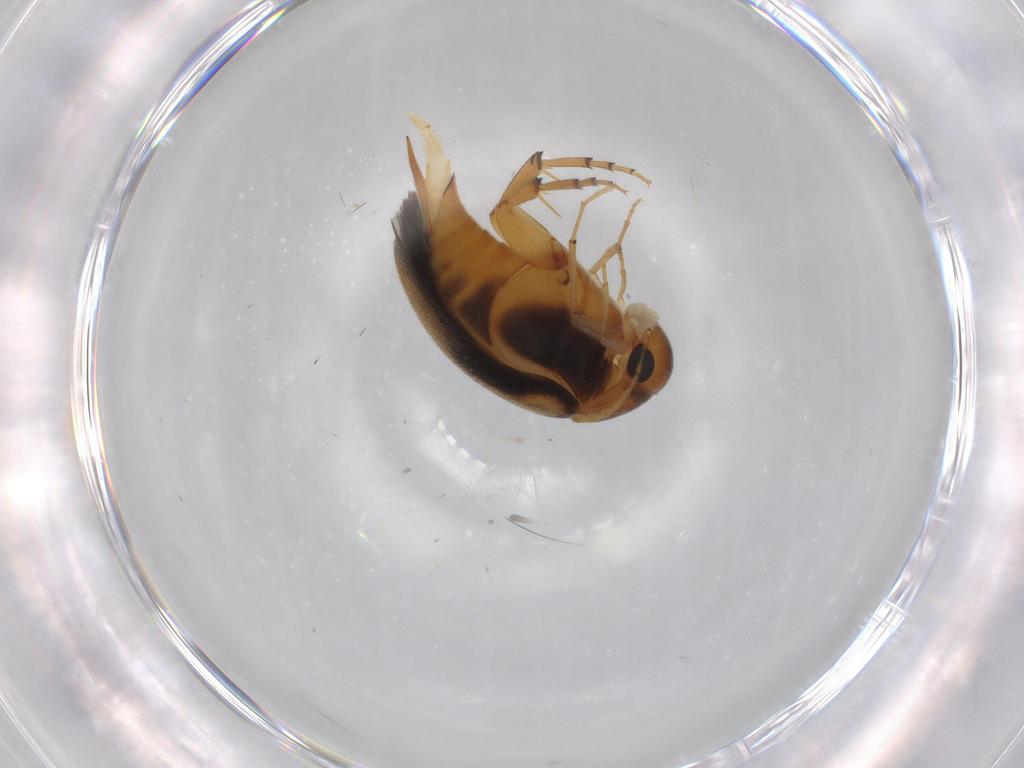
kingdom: Animalia
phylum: Arthropoda
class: Insecta
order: Coleoptera
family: Mordellidae
